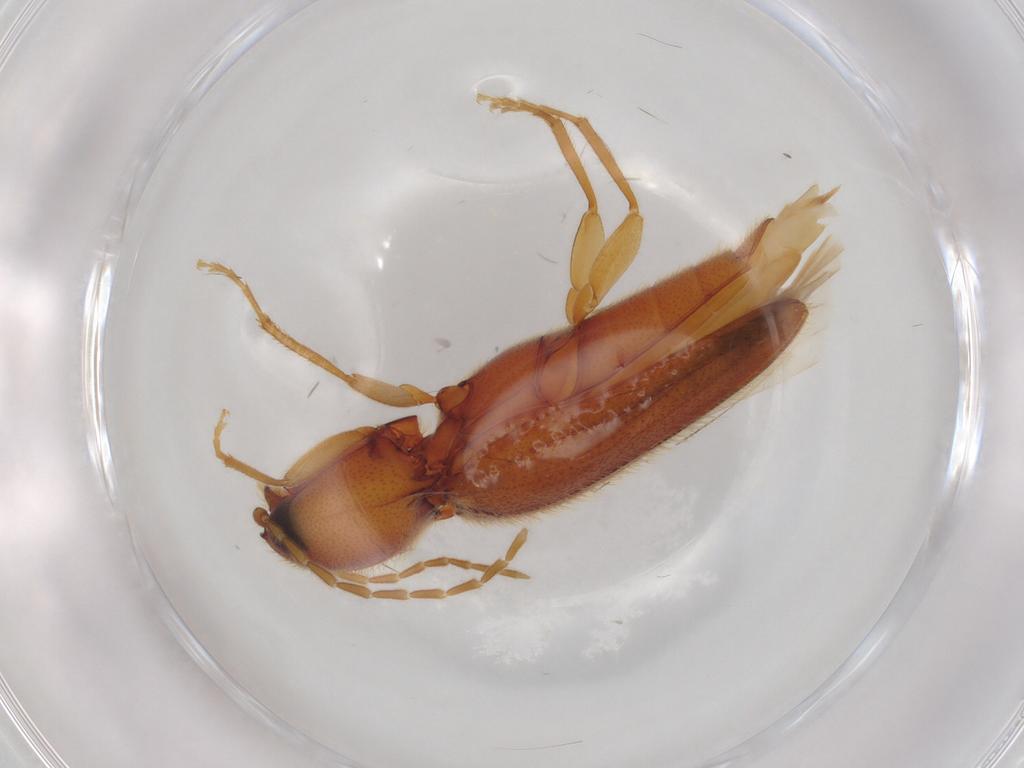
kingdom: Animalia
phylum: Arthropoda
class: Insecta
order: Coleoptera
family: Elateridae
